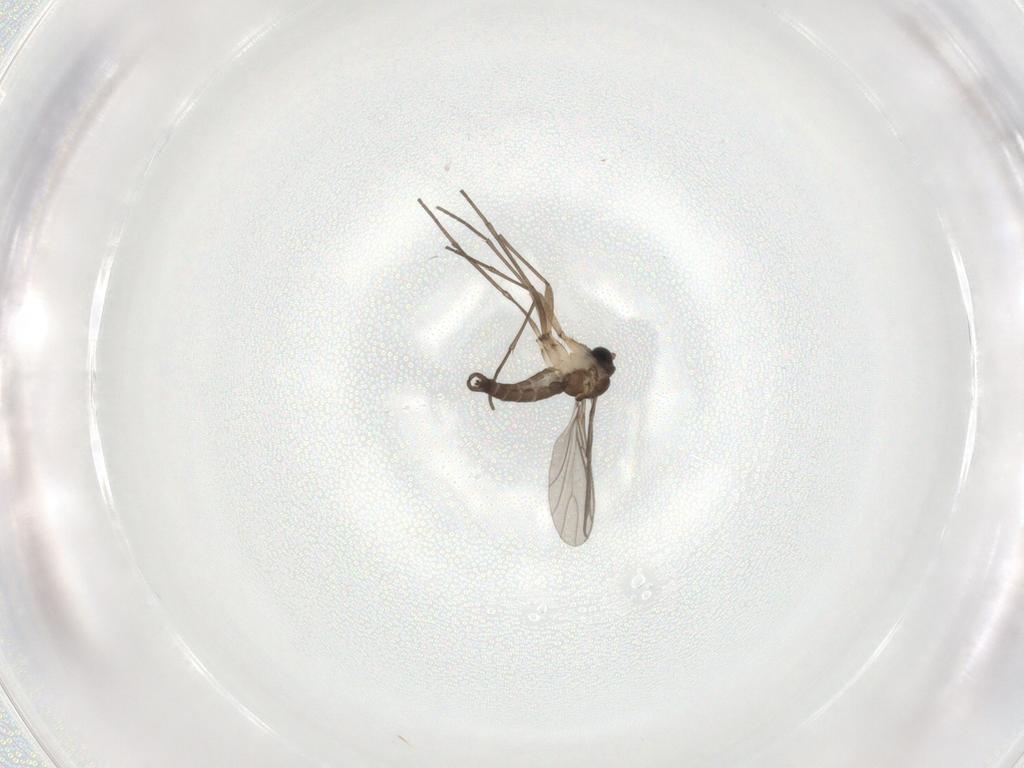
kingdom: Animalia
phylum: Arthropoda
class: Insecta
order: Diptera
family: Sciaridae
